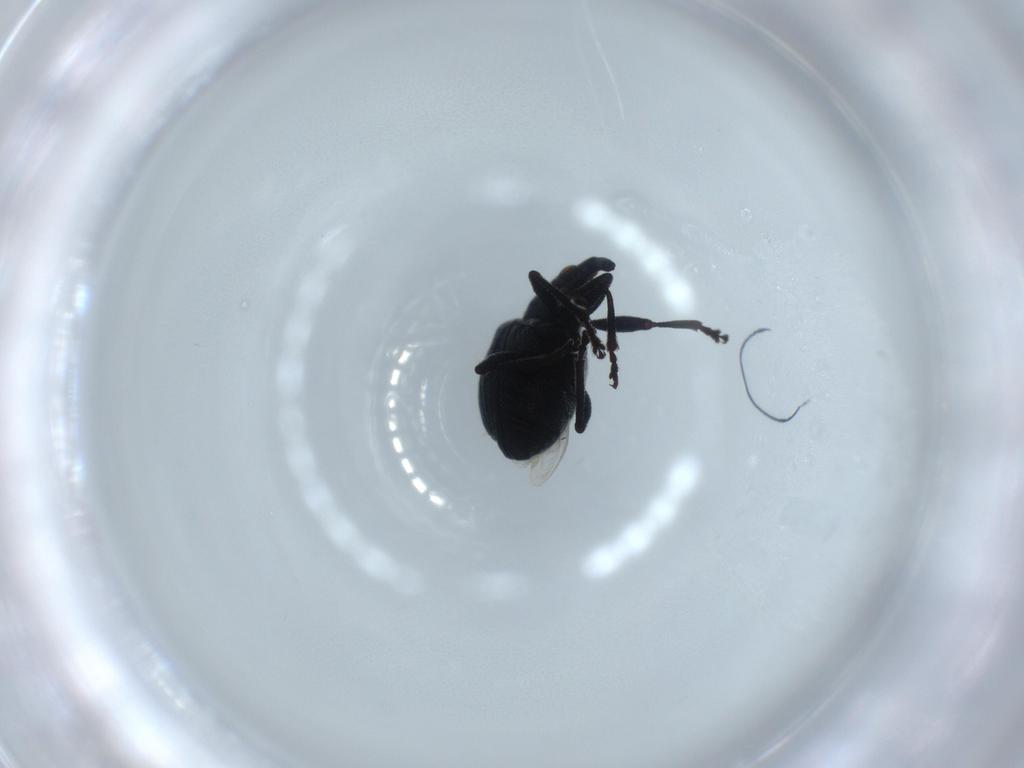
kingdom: Animalia
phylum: Arthropoda
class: Insecta
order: Coleoptera
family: Brentidae
